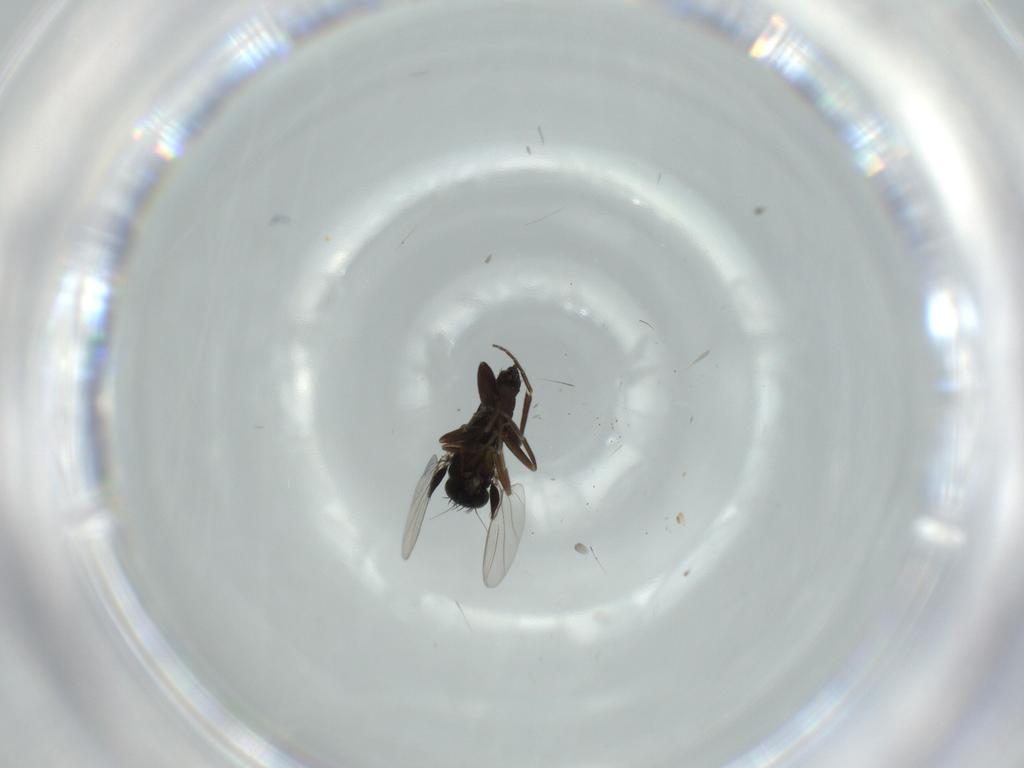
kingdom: Animalia
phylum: Arthropoda
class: Insecta
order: Diptera
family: Phoridae
